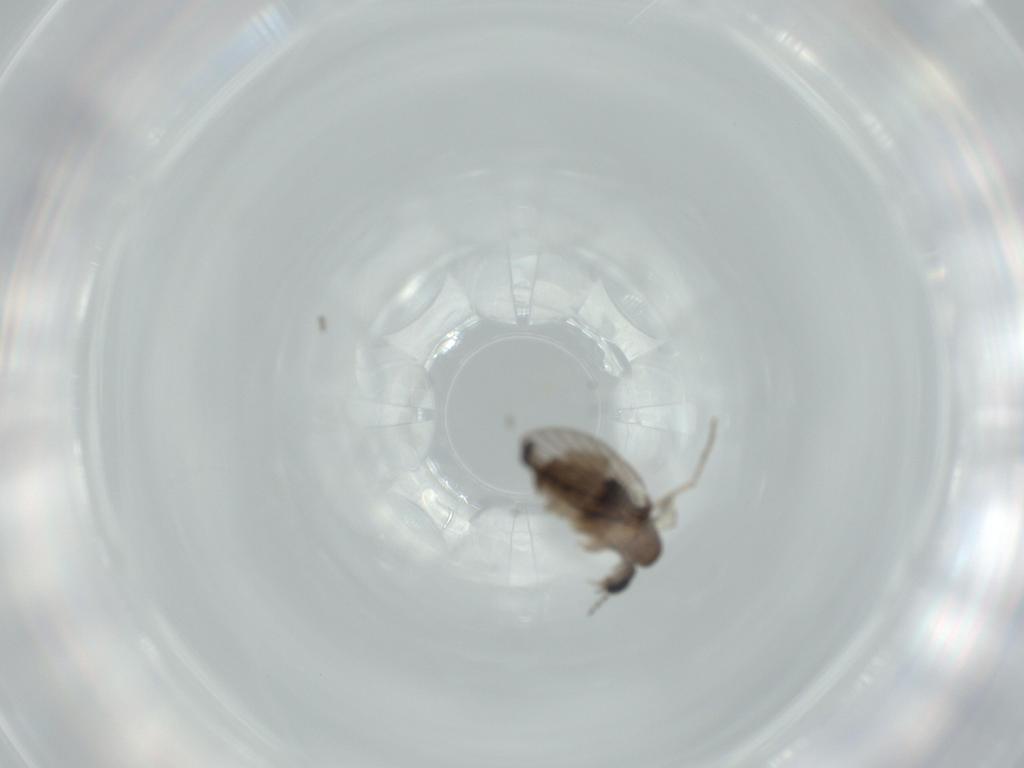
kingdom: Animalia
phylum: Arthropoda
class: Insecta
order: Diptera
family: Psychodidae
